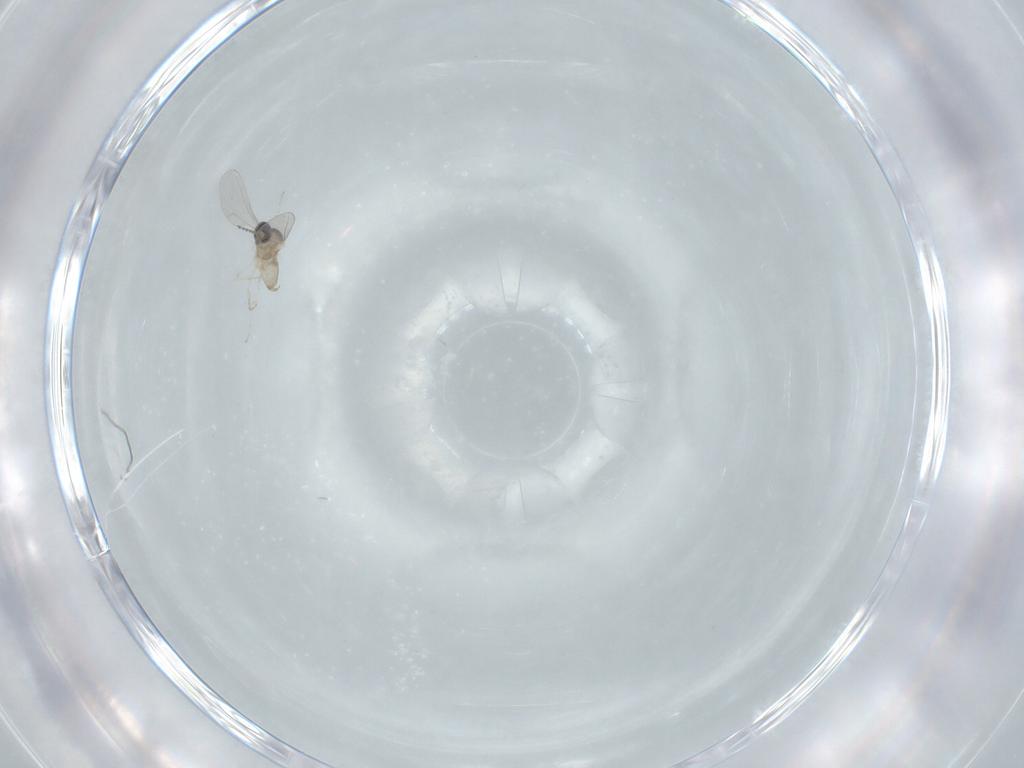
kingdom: Animalia
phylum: Arthropoda
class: Insecta
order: Diptera
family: Cecidomyiidae
